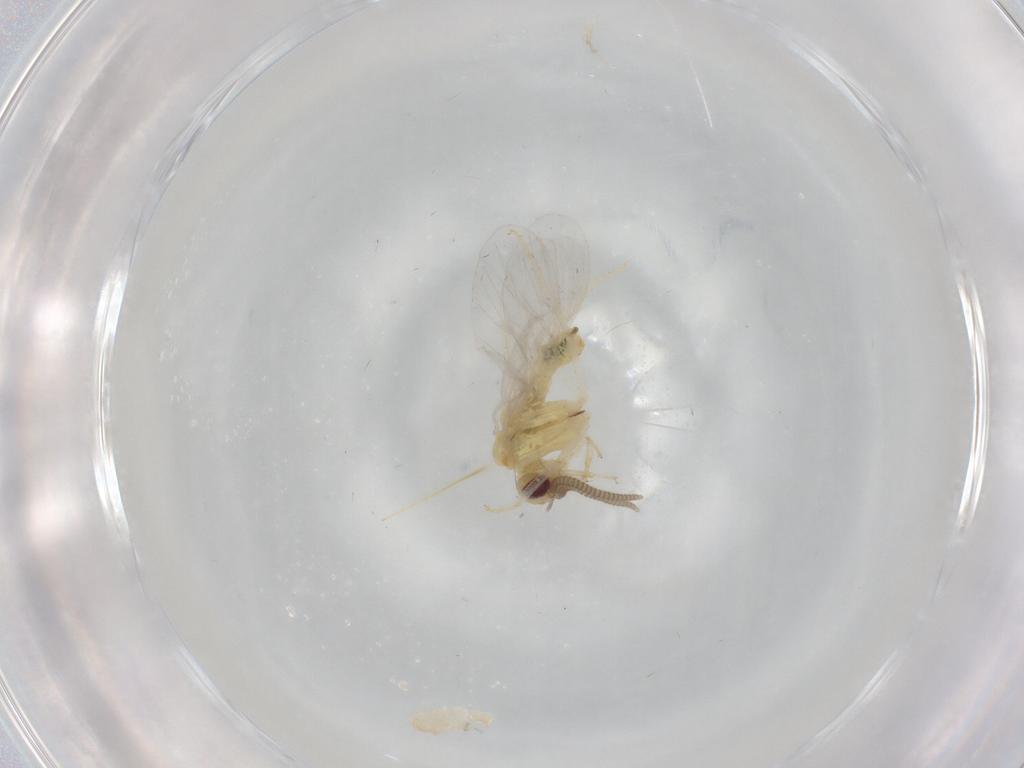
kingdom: Animalia
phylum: Arthropoda
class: Insecta
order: Neuroptera
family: Coniopterygidae
